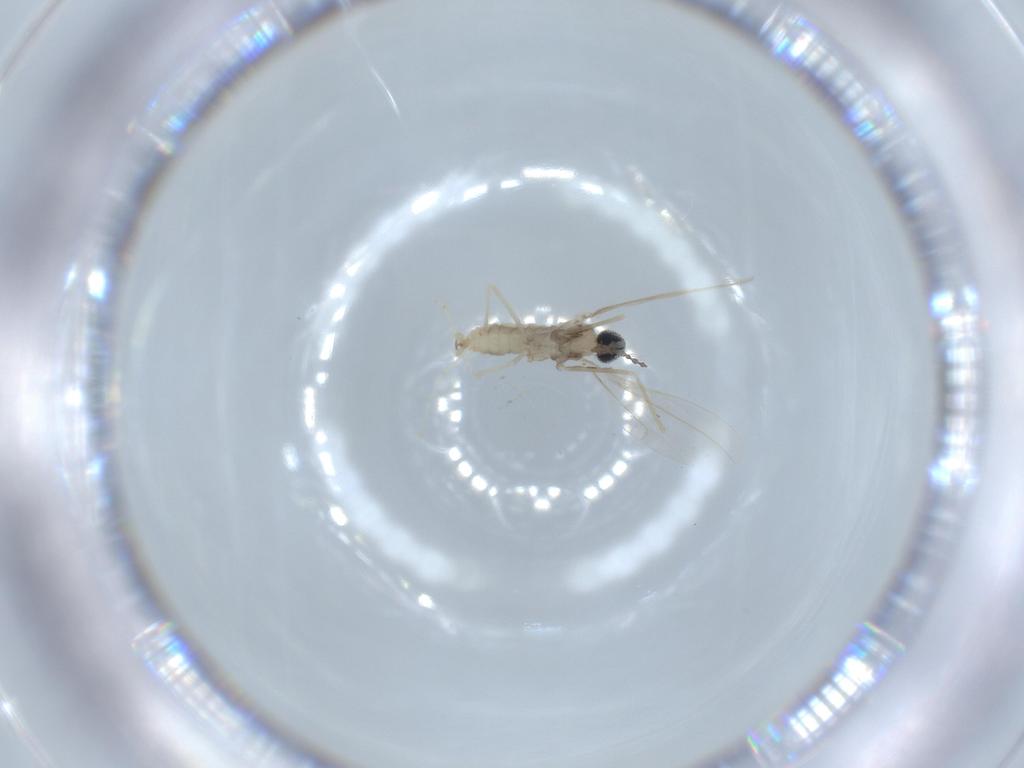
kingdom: Animalia
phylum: Arthropoda
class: Insecta
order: Diptera
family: Cecidomyiidae
